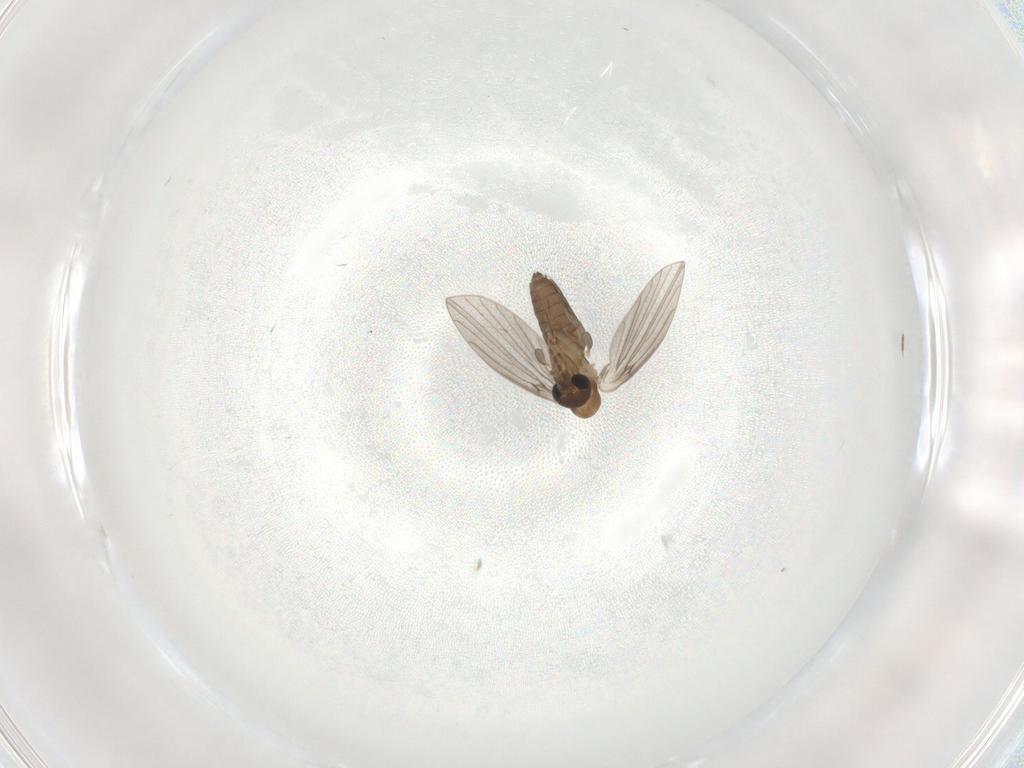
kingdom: Animalia
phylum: Arthropoda
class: Insecta
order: Diptera
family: Psychodidae
